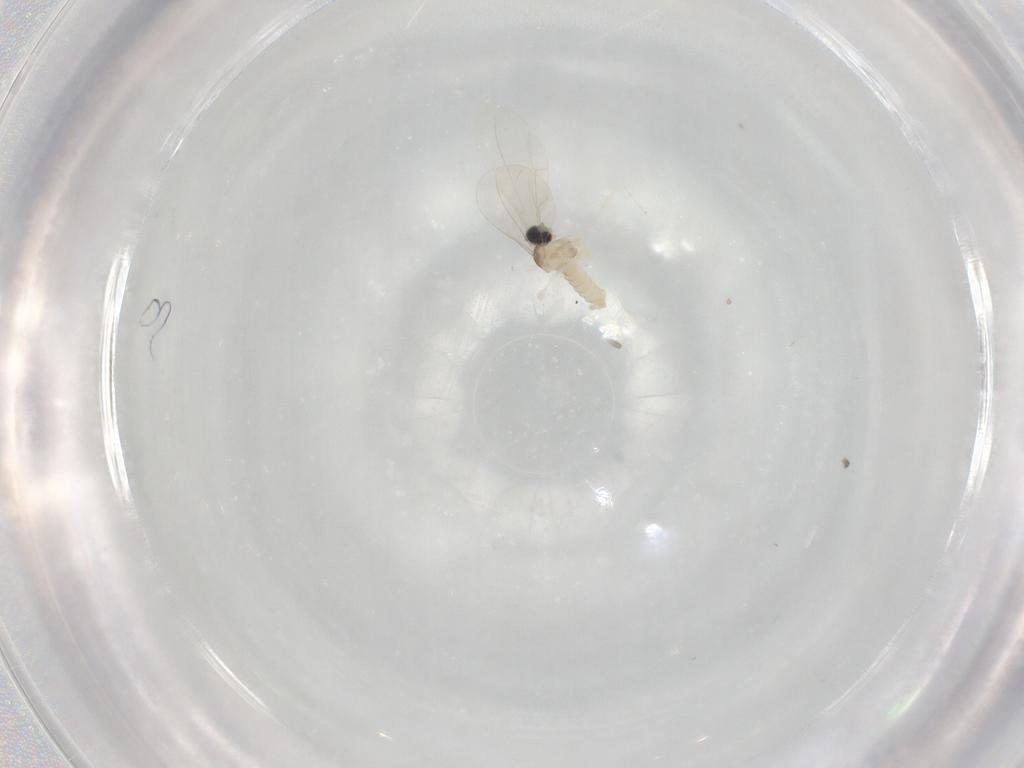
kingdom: Animalia
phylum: Arthropoda
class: Insecta
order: Diptera
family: Cecidomyiidae
